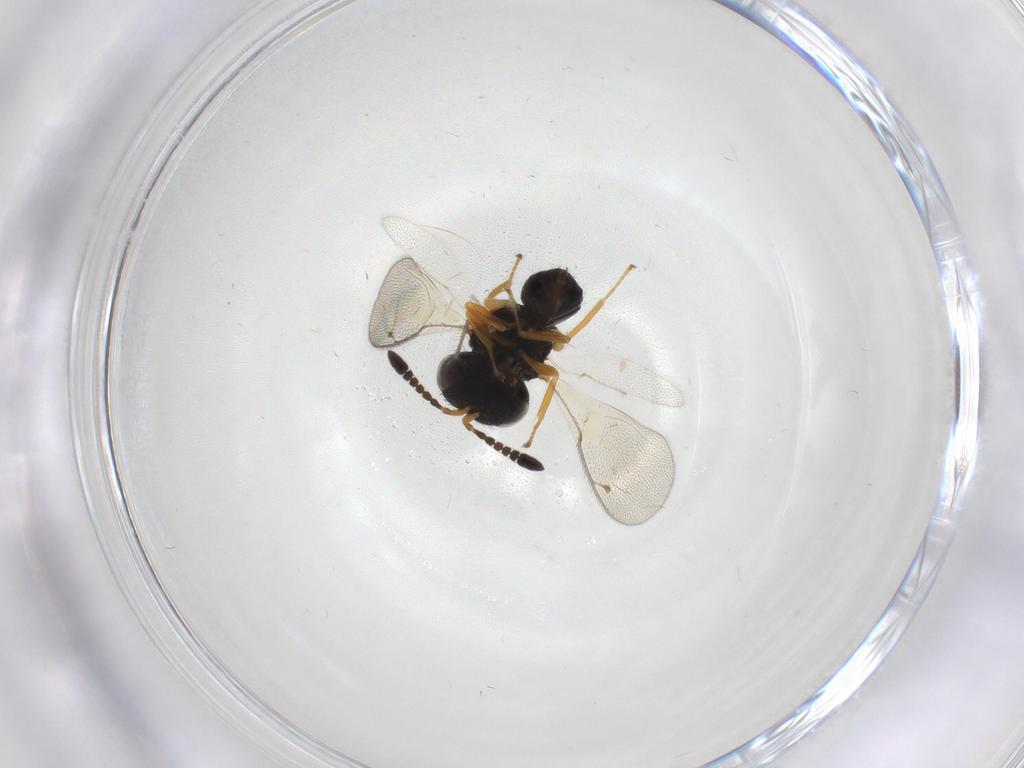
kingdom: Animalia
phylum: Arthropoda
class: Insecta
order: Hymenoptera
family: Pteromalidae
